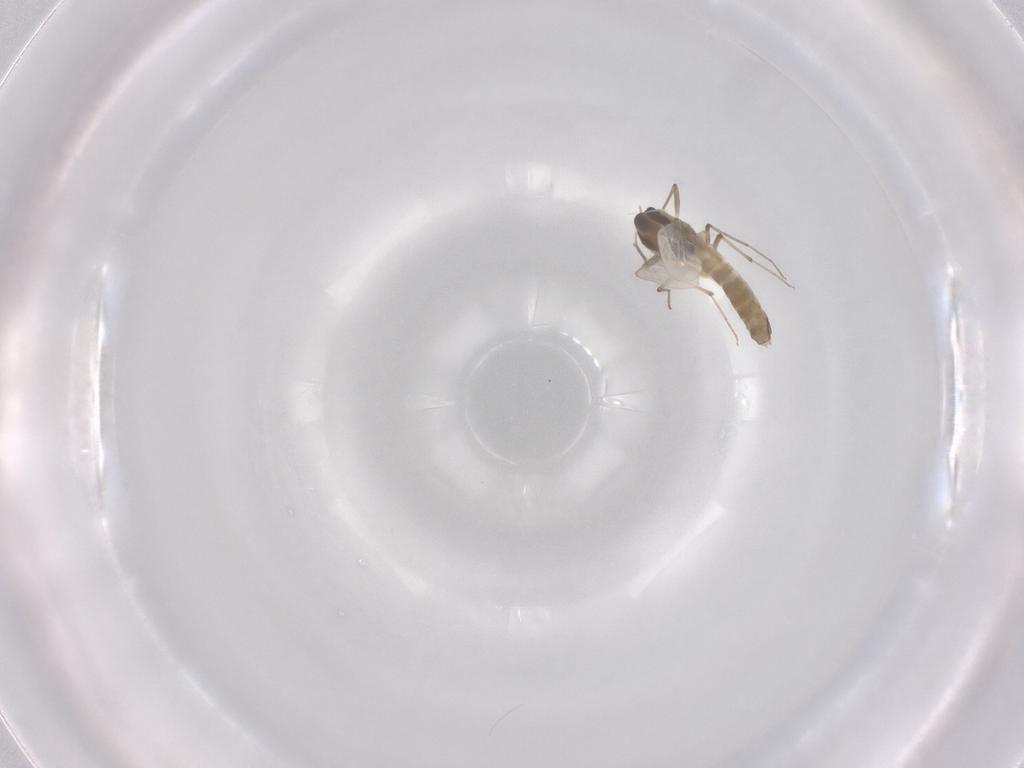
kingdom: Animalia
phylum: Arthropoda
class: Insecta
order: Diptera
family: Chironomidae
